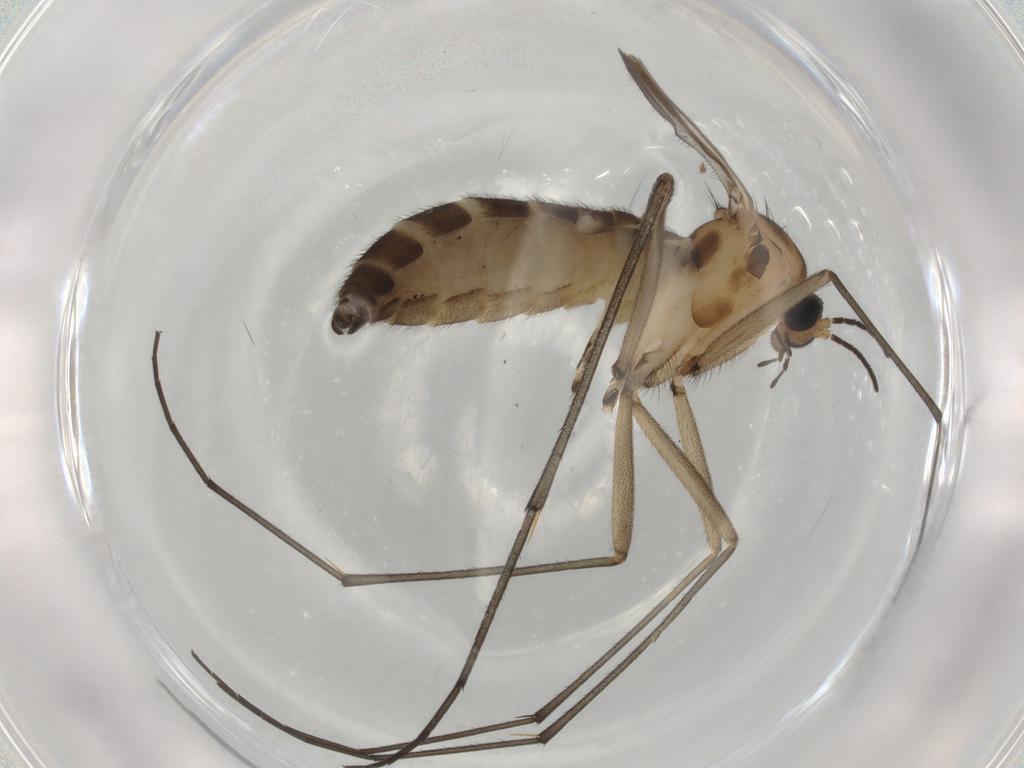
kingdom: Animalia
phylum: Arthropoda
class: Insecta
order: Diptera
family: Sciaridae
